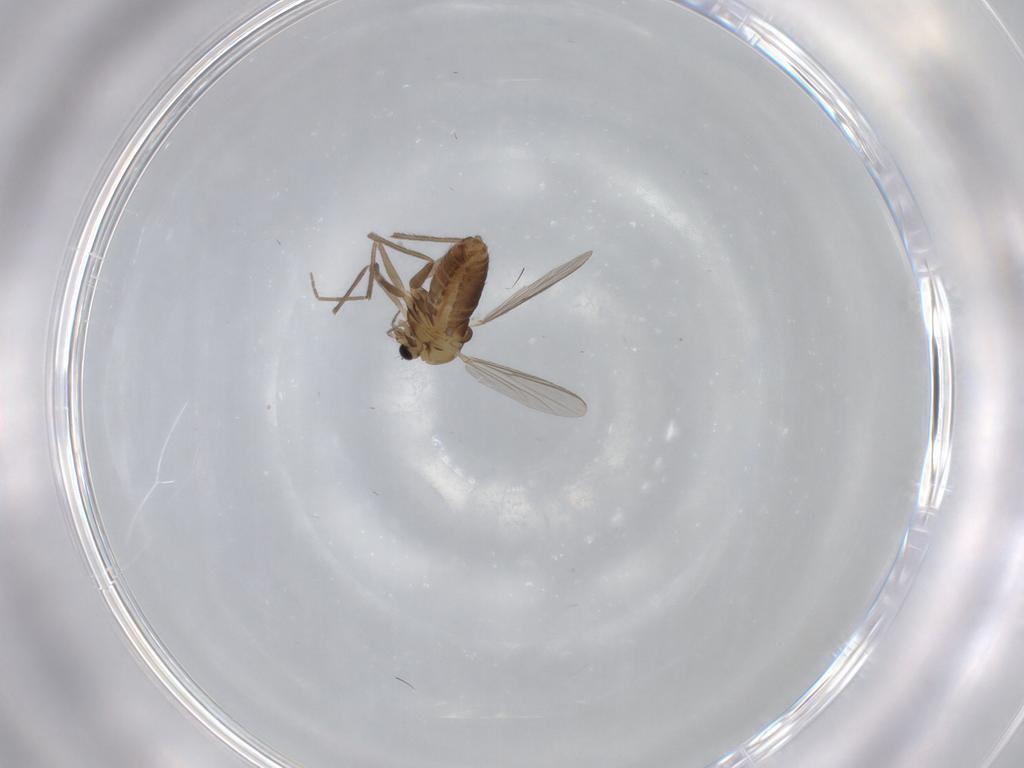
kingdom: Animalia
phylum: Arthropoda
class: Insecta
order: Diptera
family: Chironomidae
